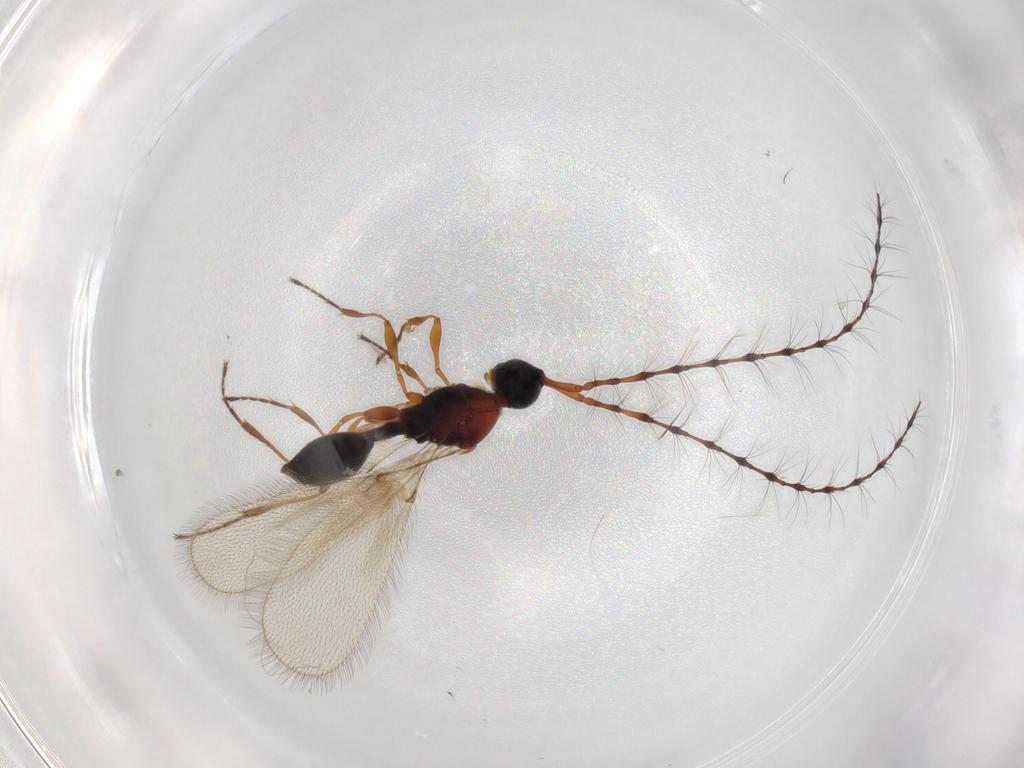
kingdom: Animalia
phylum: Arthropoda
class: Insecta
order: Hymenoptera
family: Diapriidae
